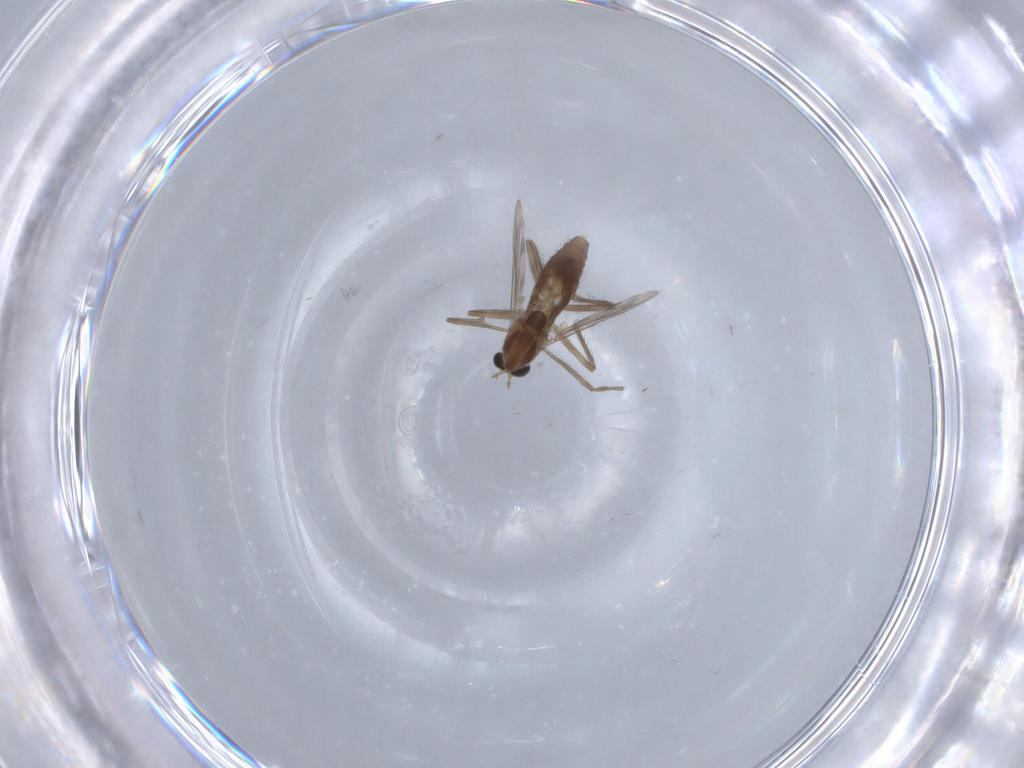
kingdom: Animalia
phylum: Arthropoda
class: Insecta
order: Diptera
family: Chironomidae
